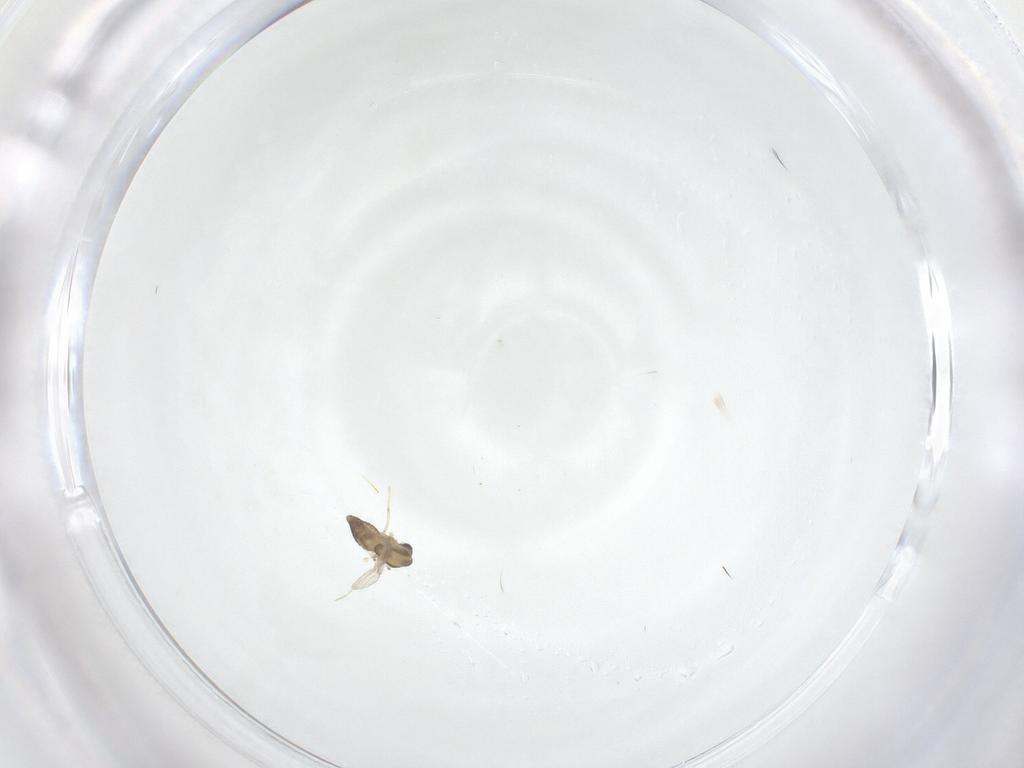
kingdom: Animalia
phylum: Arthropoda
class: Insecta
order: Diptera
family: Chironomidae
